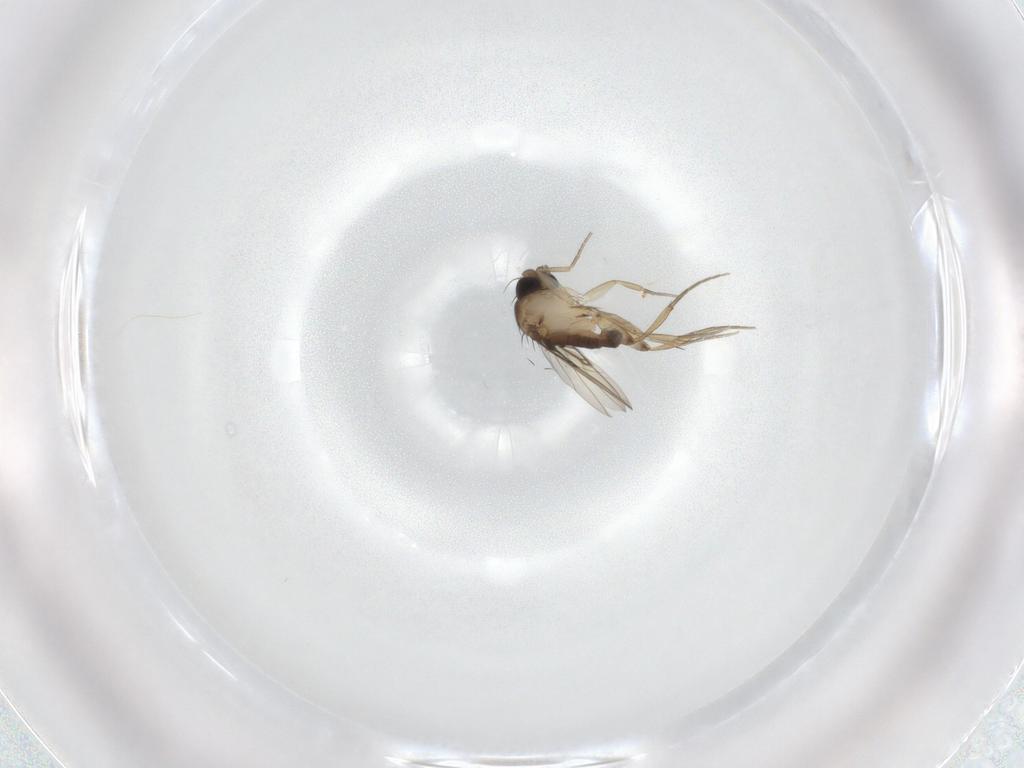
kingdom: Animalia
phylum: Arthropoda
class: Insecta
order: Diptera
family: Phoridae
